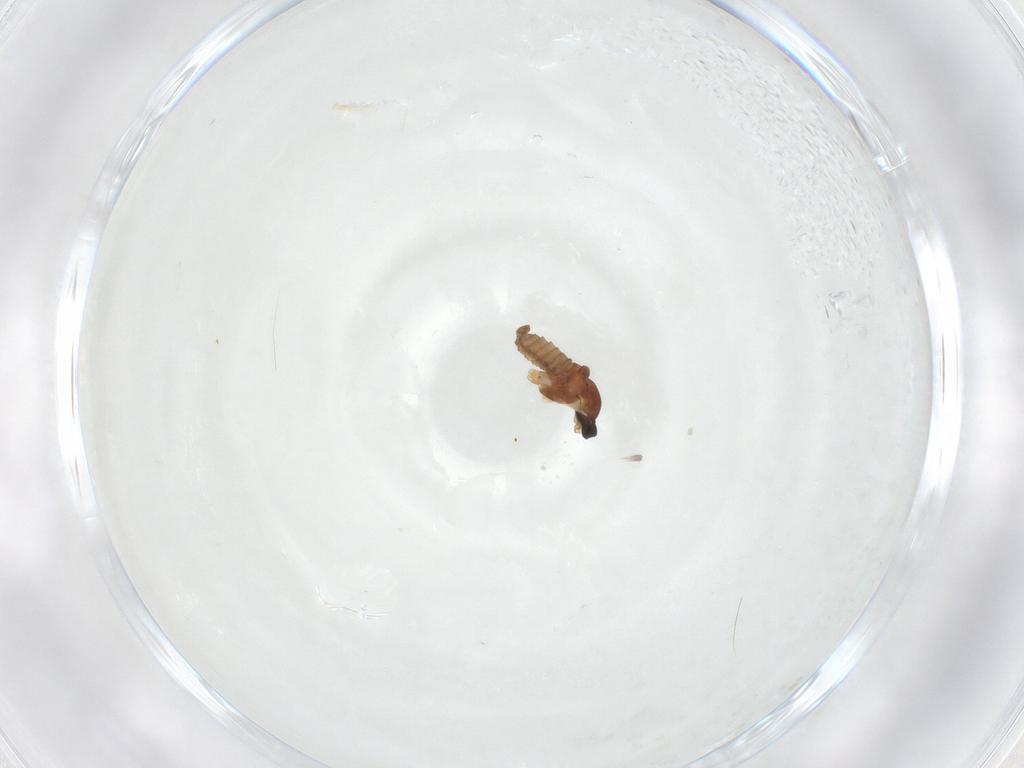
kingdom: Animalia
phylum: Arthropoda
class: Insecta
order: Diptera
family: Cecidomyiidae
